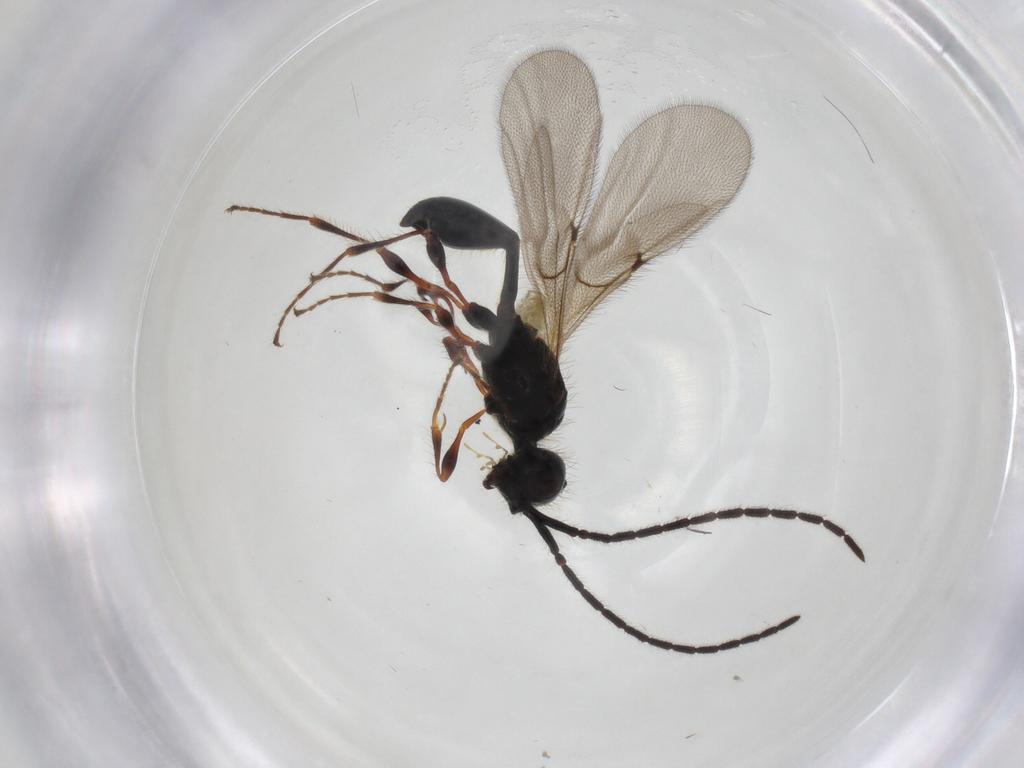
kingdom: Animalia
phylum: Arthropoda
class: Insecta
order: Hymenoptera
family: Diapriidae
